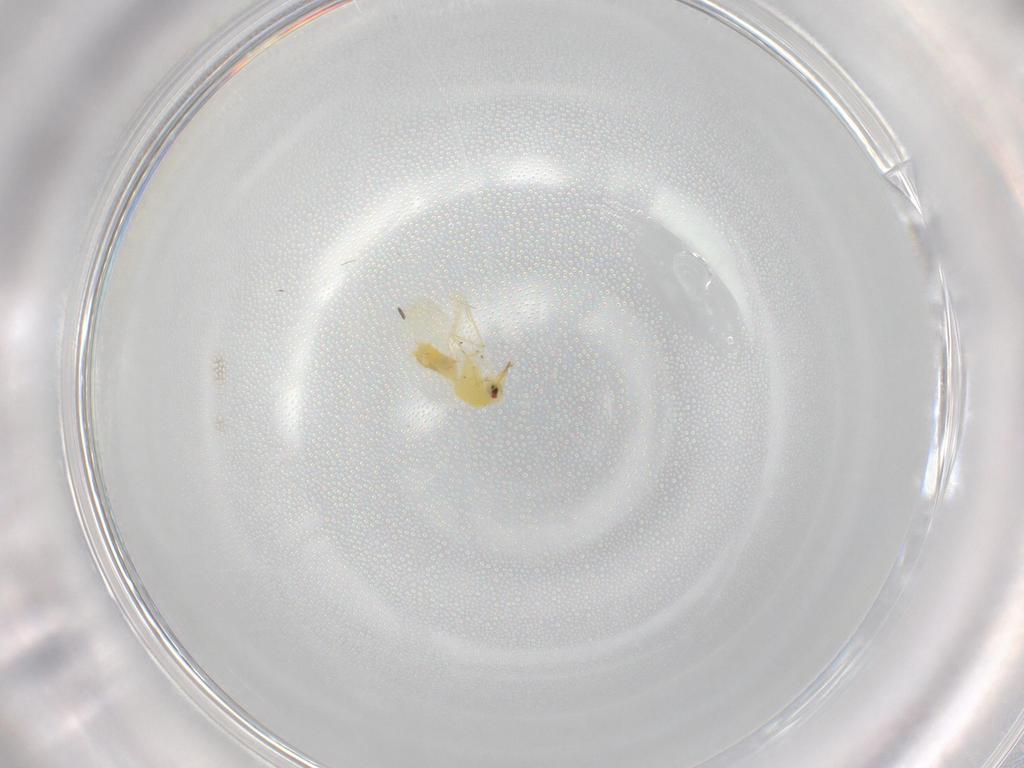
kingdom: Animalia
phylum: Arthropoda
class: Insecta
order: Hemiptera
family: Aleyrodidae
